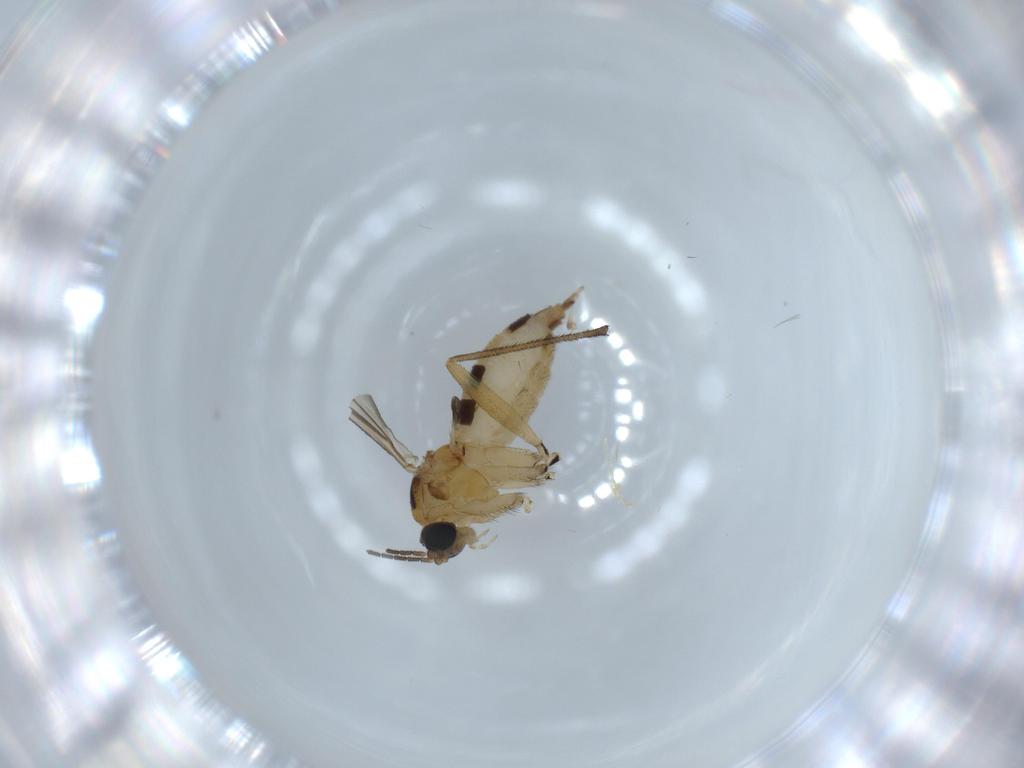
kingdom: Animalia
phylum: Arthropoda
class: Insecta
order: Diptera
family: Cecidomyiidae
